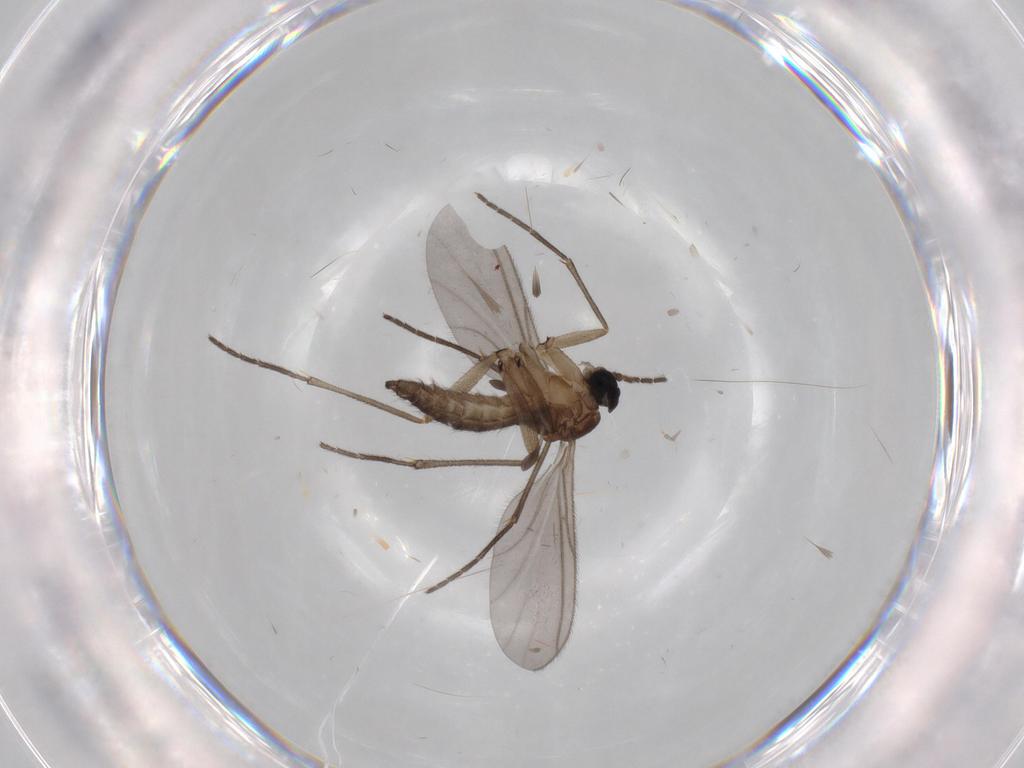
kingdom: Animalia
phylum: Arthropoda
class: Insecta
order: Diptera
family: Sciaridae
